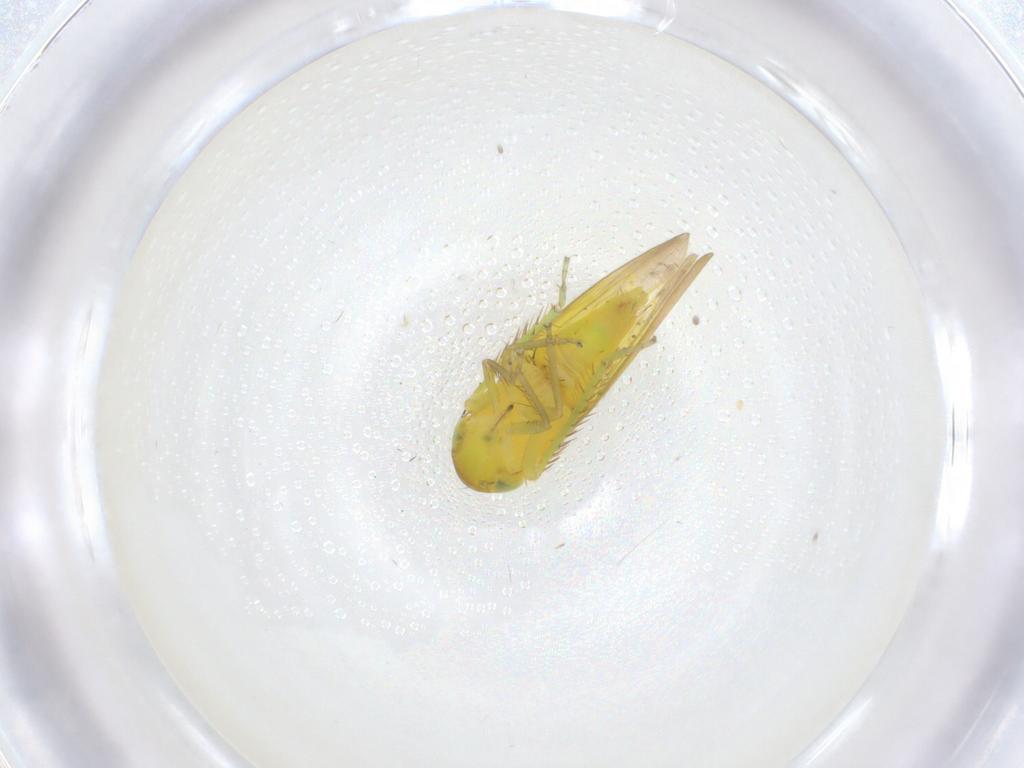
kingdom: Animalia
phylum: Arthropoda
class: Insecta
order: Hemiptera
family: Cicadellidae
